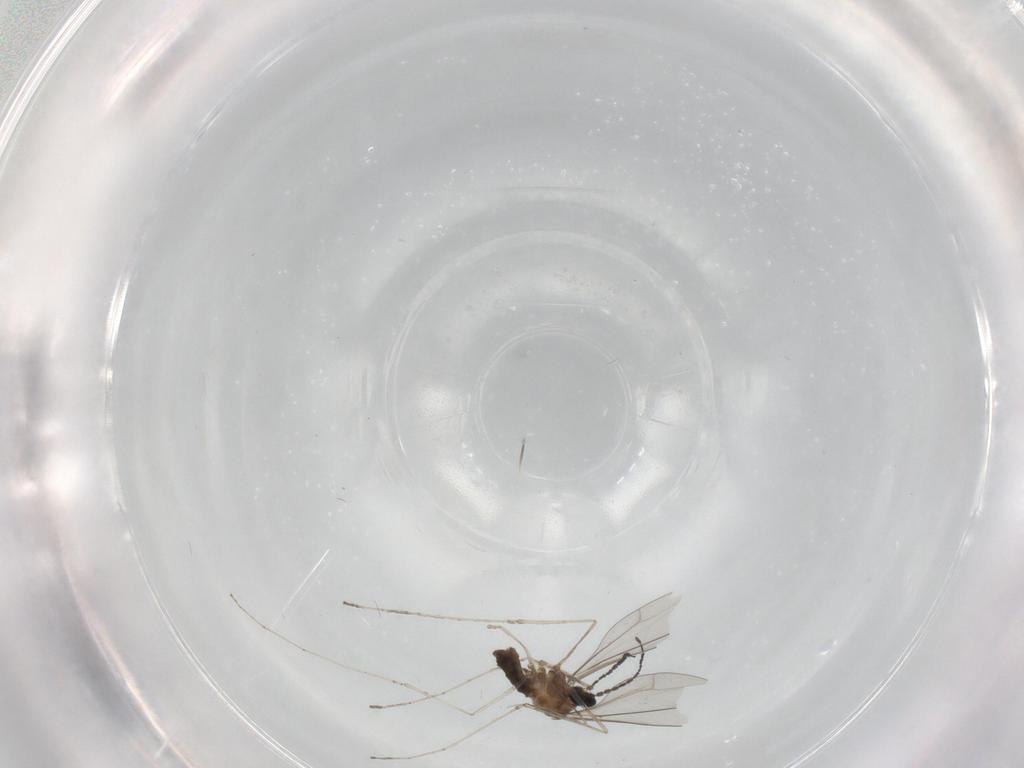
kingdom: Animalia
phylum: Arthropoda
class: Insecta
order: Diptera
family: Cecidomyiidae
